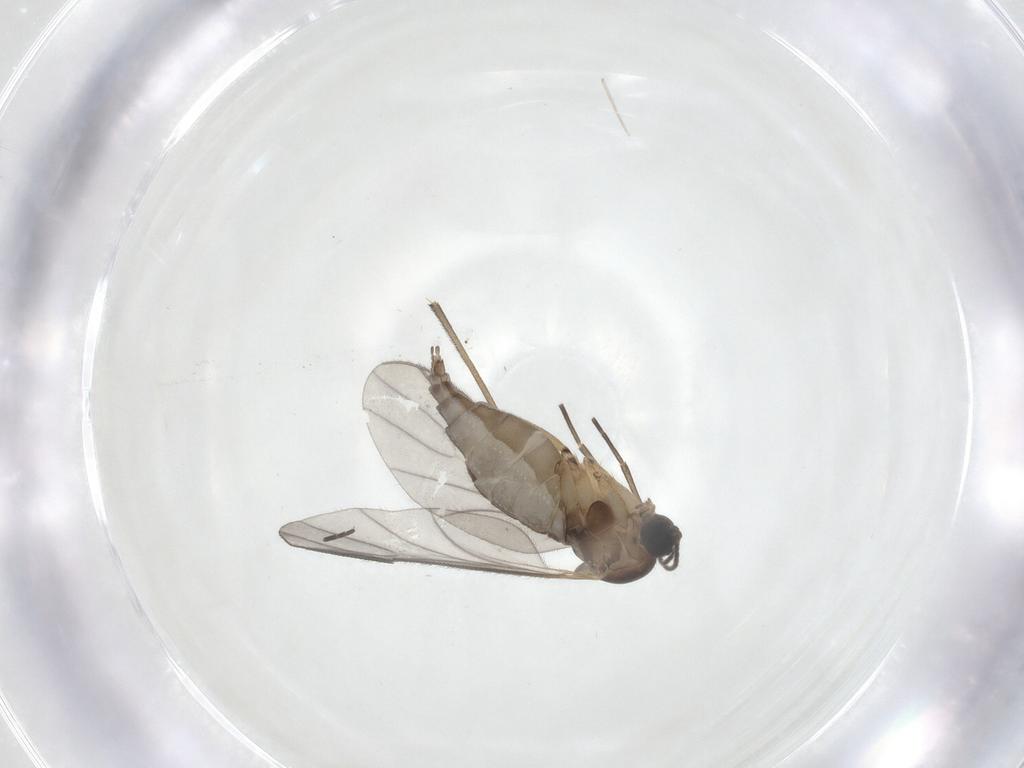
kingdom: Animalia
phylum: Arthropoda
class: Insecta
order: Diptera
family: Sciaridae
